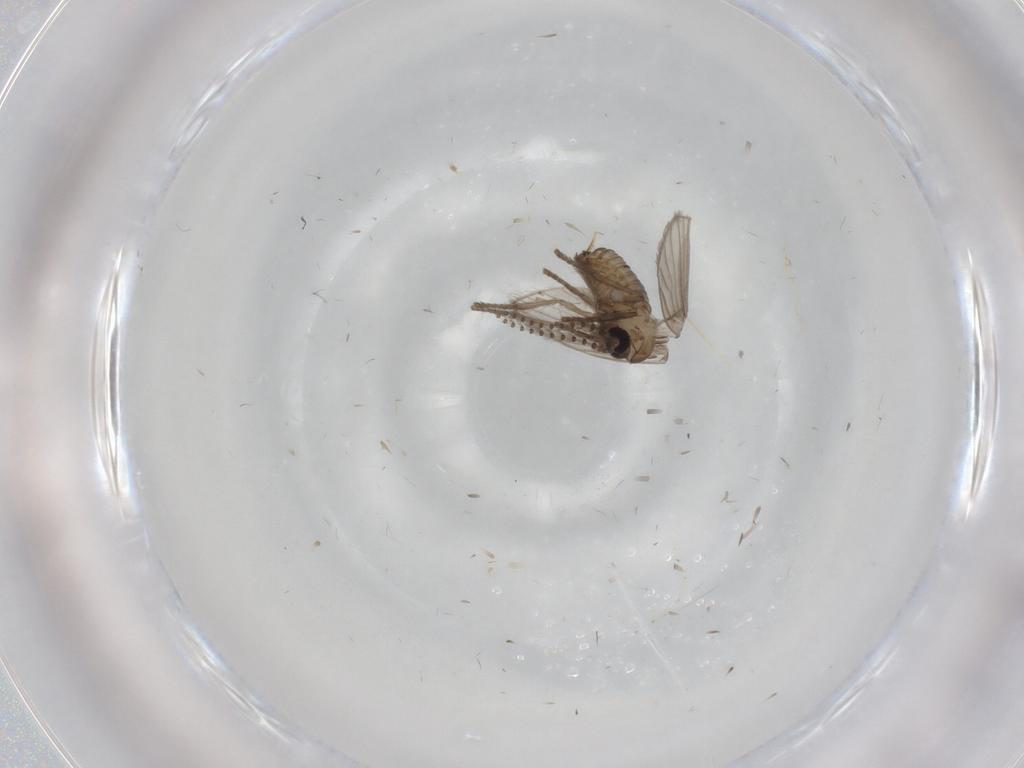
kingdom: Animalia
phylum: Arthropoda
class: Insecta
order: Diptera
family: Psychodidae
